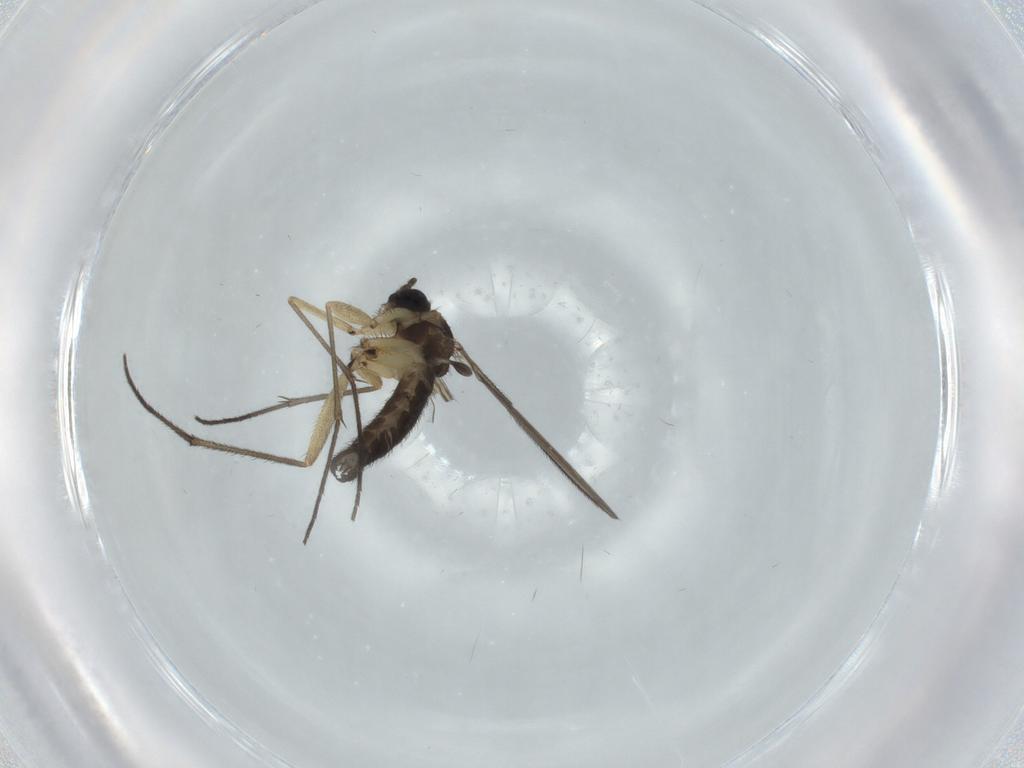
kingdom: Animalia
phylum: Arthropoda
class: Insecta
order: Diptera
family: Sciaridae
